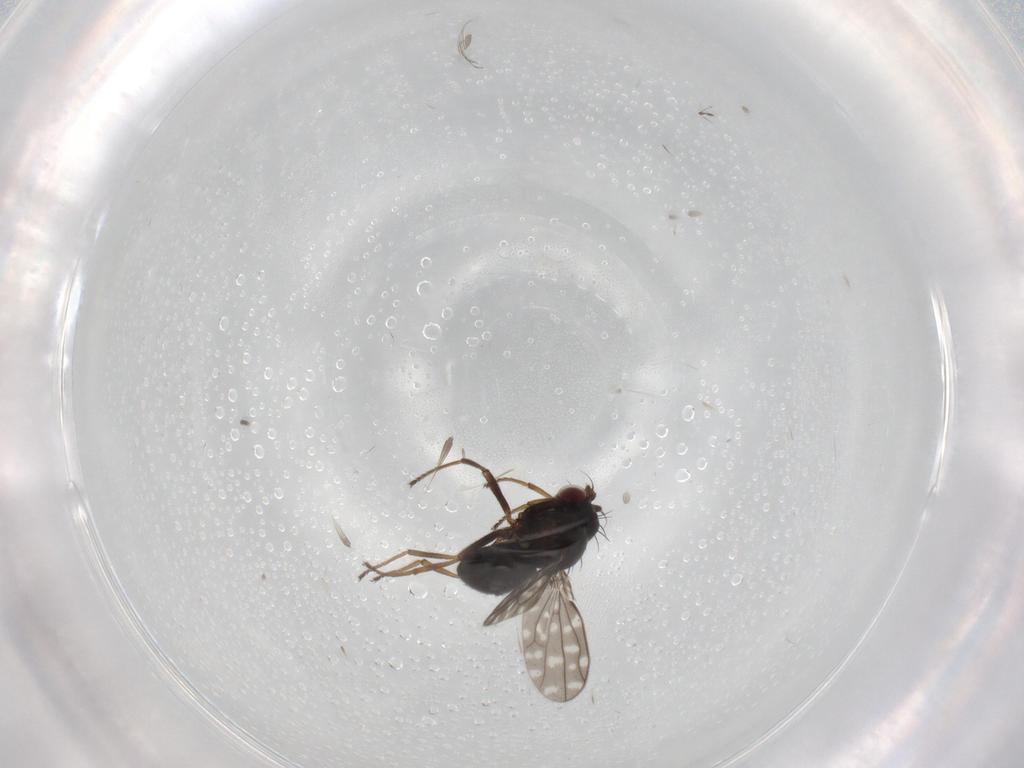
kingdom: Animalia
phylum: Arthropoda
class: Insecta
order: Diptera
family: Ephydridae
